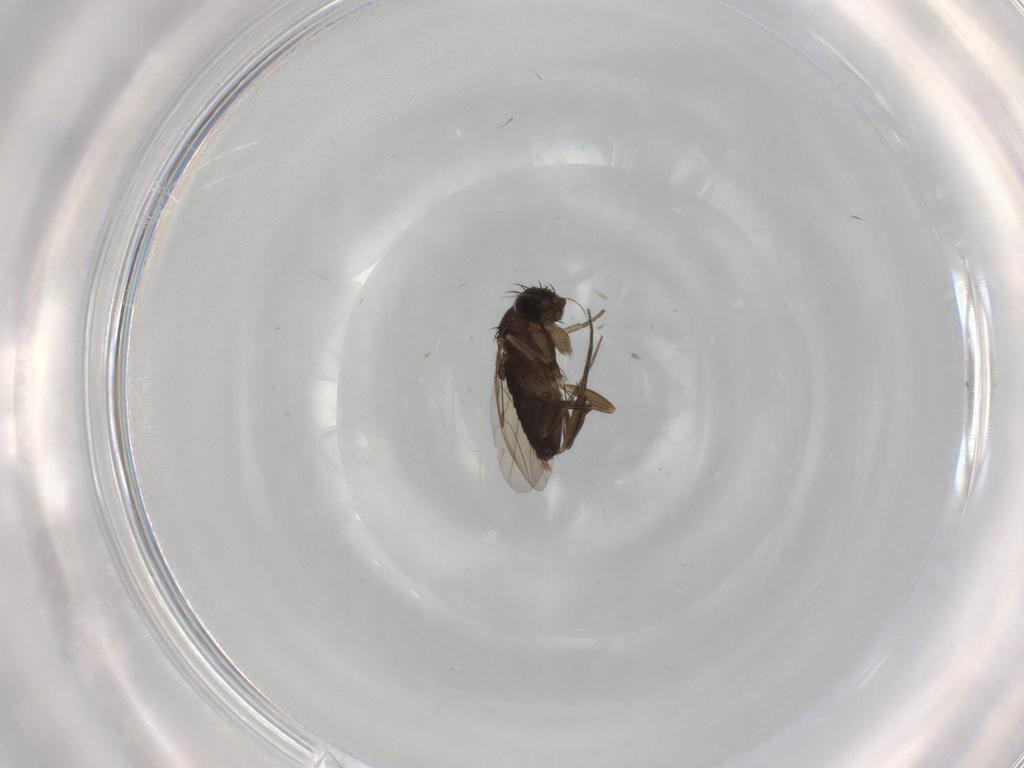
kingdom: Animalia
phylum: Arthropoda
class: Insecta
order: Diptera
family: Phoridae
